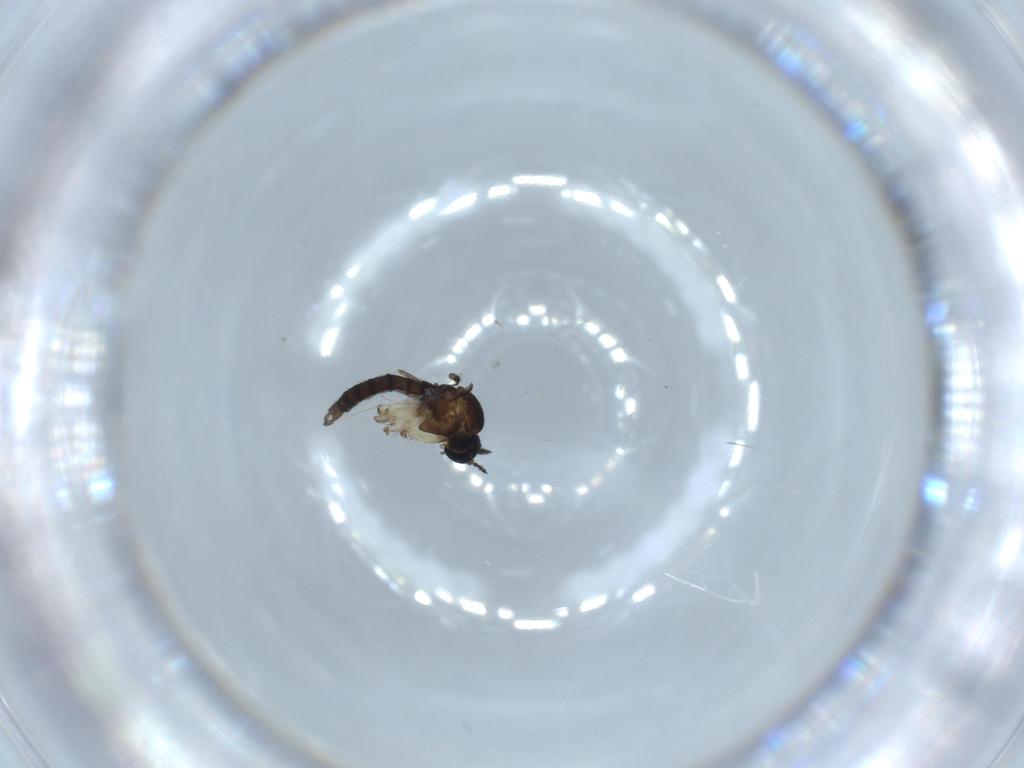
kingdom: Animalia
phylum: Arthropoda
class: Insecta
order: Diptera
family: Sciaridae
